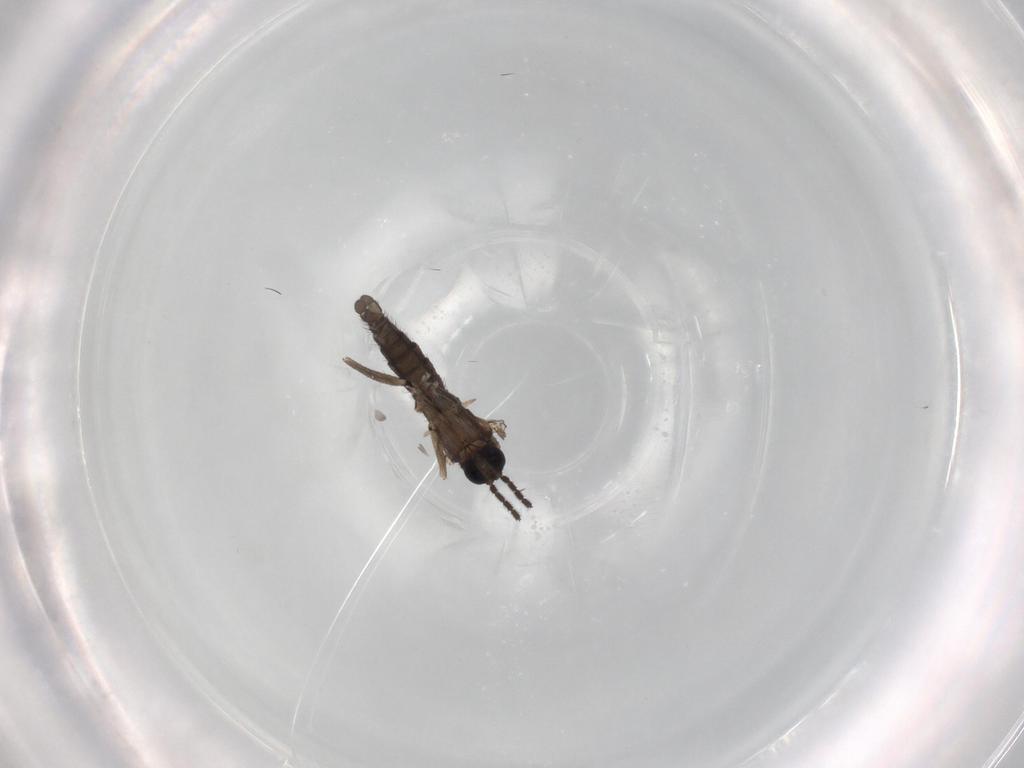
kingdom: Animalia
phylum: Arthropoda
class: Insecta
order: Diptera
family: Sciaridae
